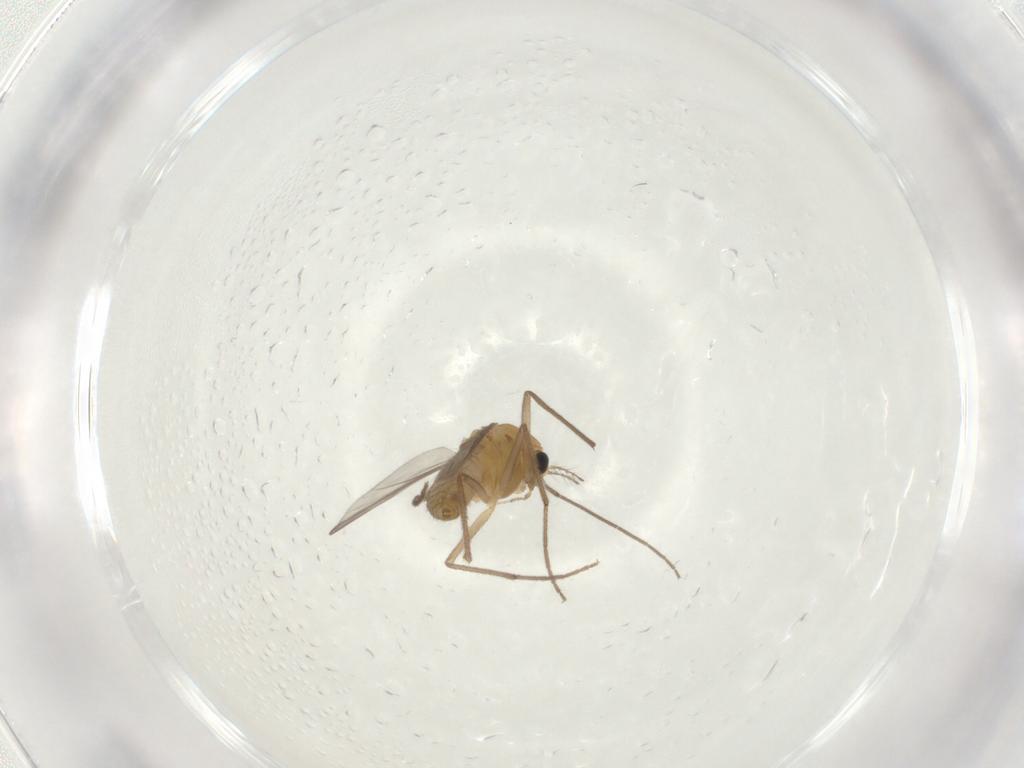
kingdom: Animalia
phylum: Arthropoda
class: Insecta
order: Diptera
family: Chironomidae
